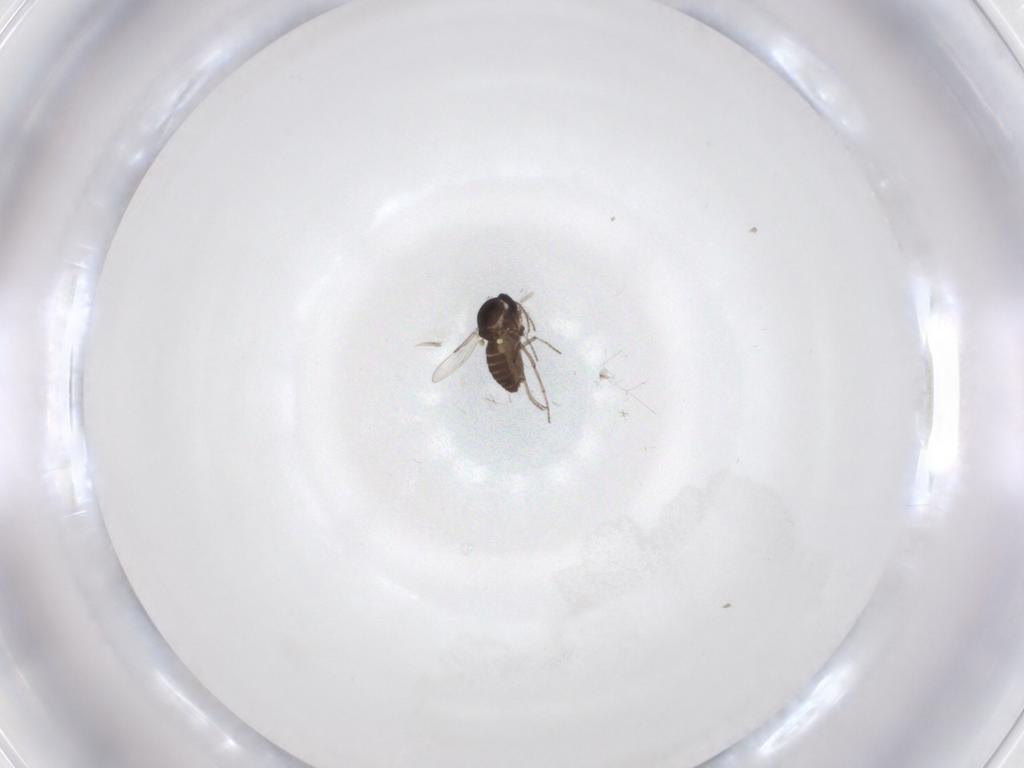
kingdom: Animalia
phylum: Arthropoda
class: Insecta
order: Diptera
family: Ceratopogonidae
